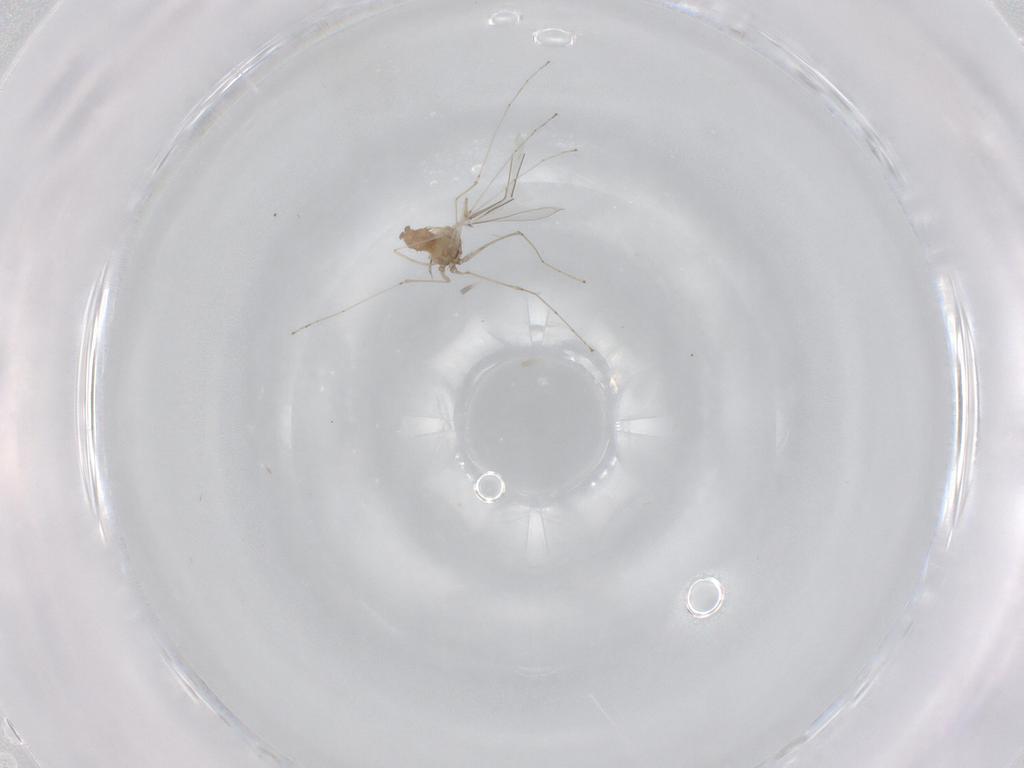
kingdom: Animalia
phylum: Arthropoda
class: Insecta
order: Diptera
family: Cecidomyiidae
